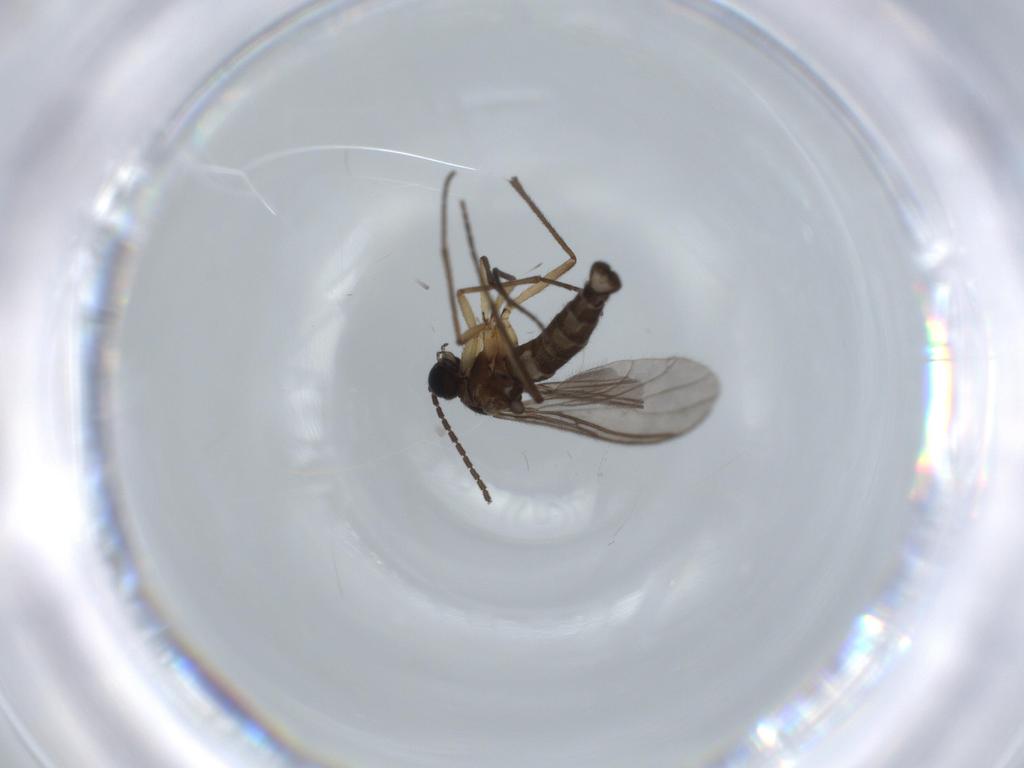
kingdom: Animalia
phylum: Arthropoda
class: Insecta
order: Diptera
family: Sciaridae
